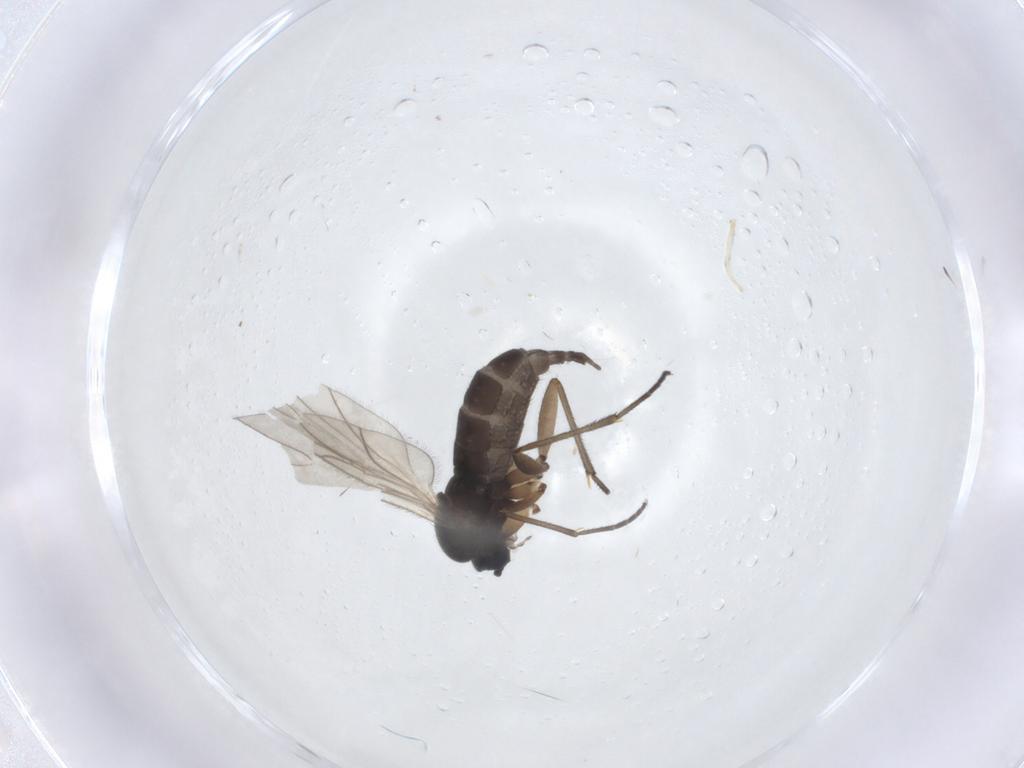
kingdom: Animalia
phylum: Arthropoda
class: Insecta
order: Diptera
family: Sciaridae
